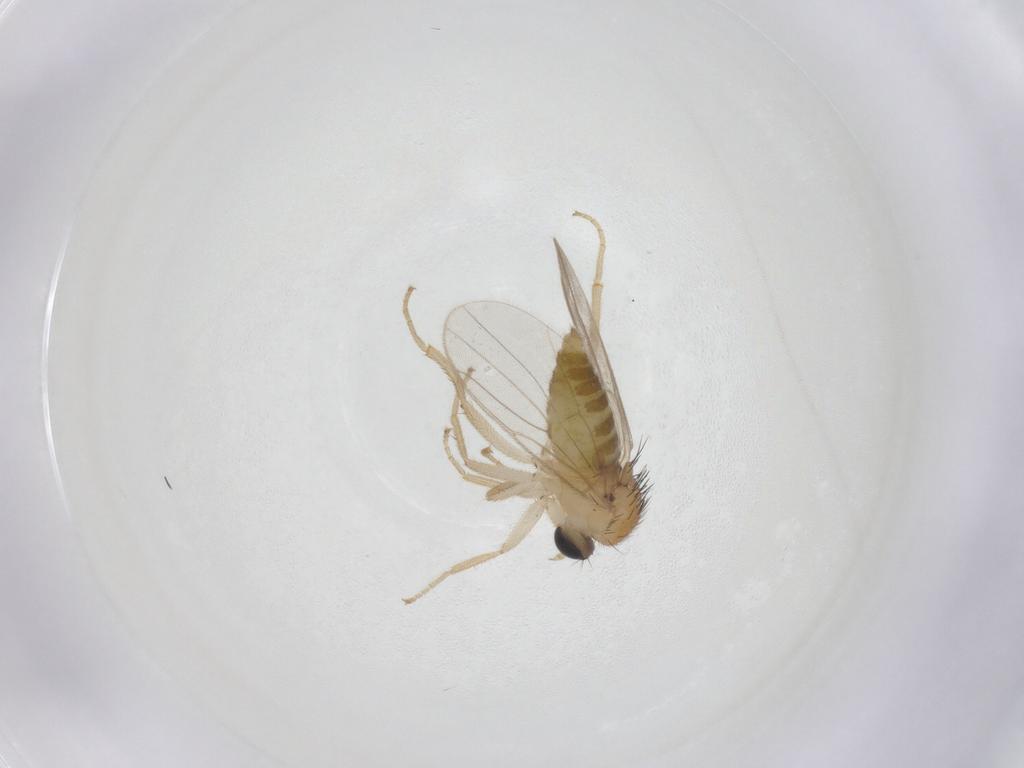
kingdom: Animalia
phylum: Arthropoda
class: Insecta
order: Diptera
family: Hybotidae
